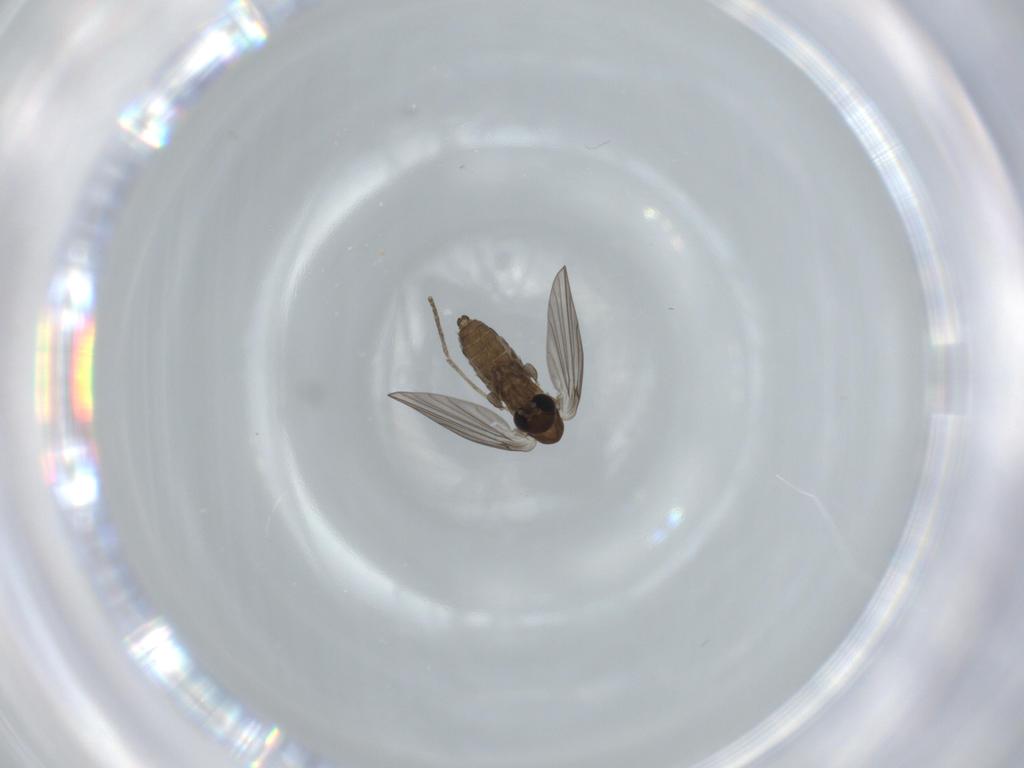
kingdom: Animalia
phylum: Arthropoda
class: Insecta
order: Diptera
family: Psychodidae
